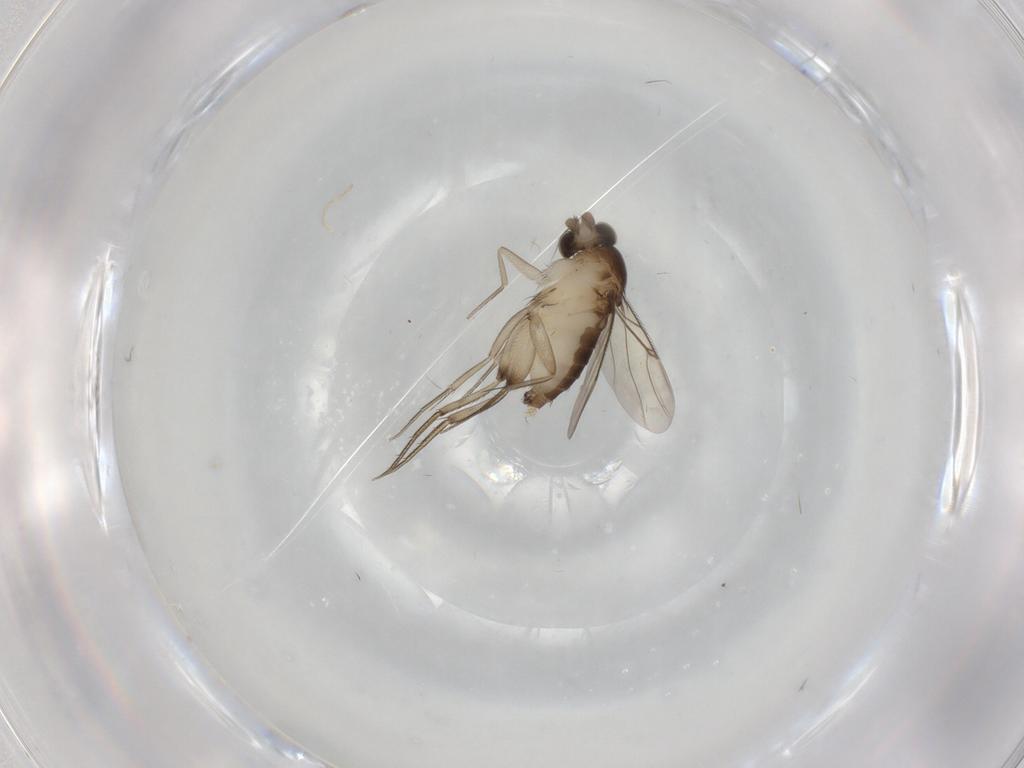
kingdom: Animalia
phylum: Arthropoda
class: Insecta
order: Diptera
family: Phoridae
